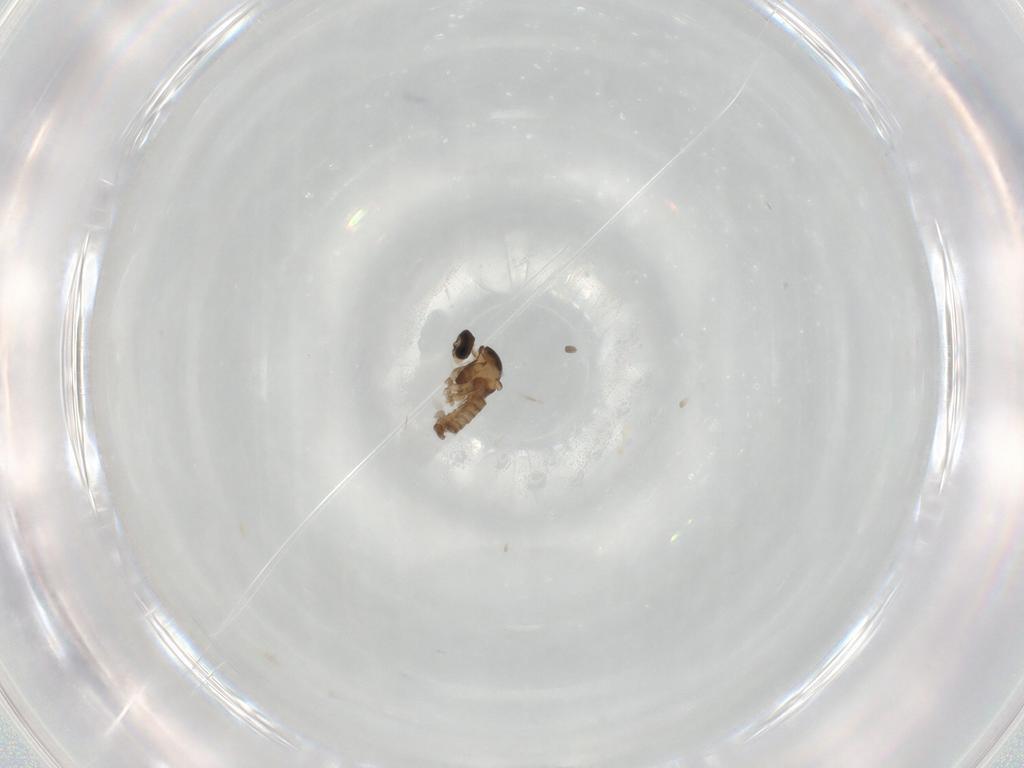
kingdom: Animalia
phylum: Arthropoda
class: Insecta
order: Diptera
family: Cecidomyiidae
